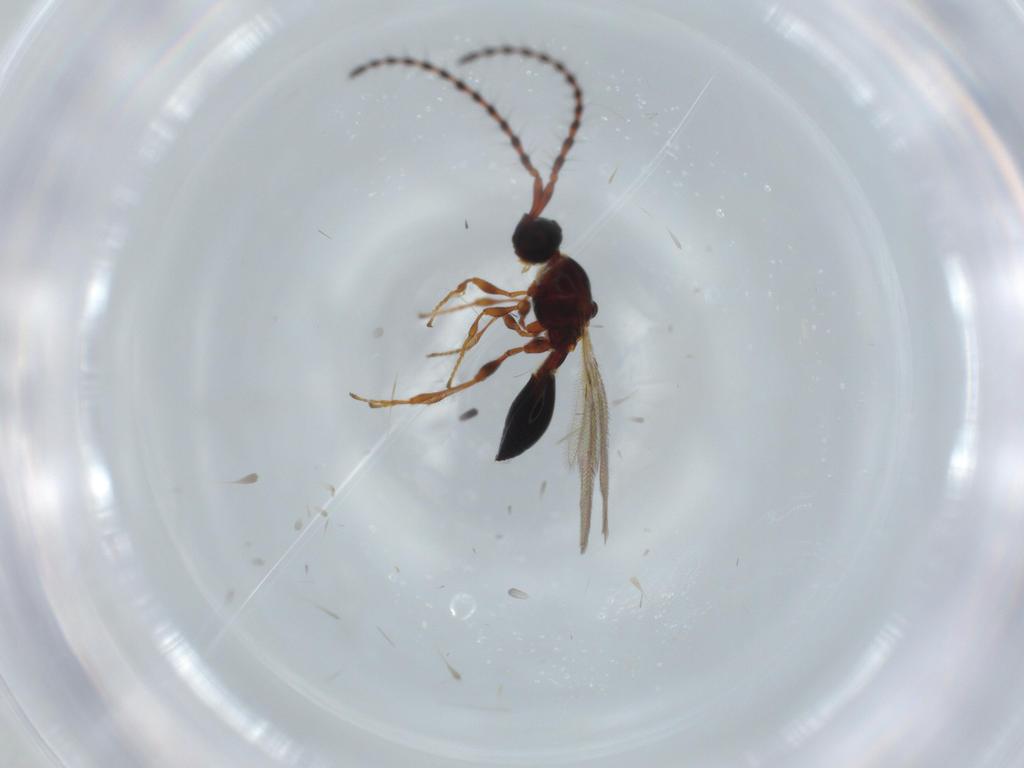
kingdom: Animalia
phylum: Arthropoda
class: Insecta
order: Hymenoptera
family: Diapriidae
